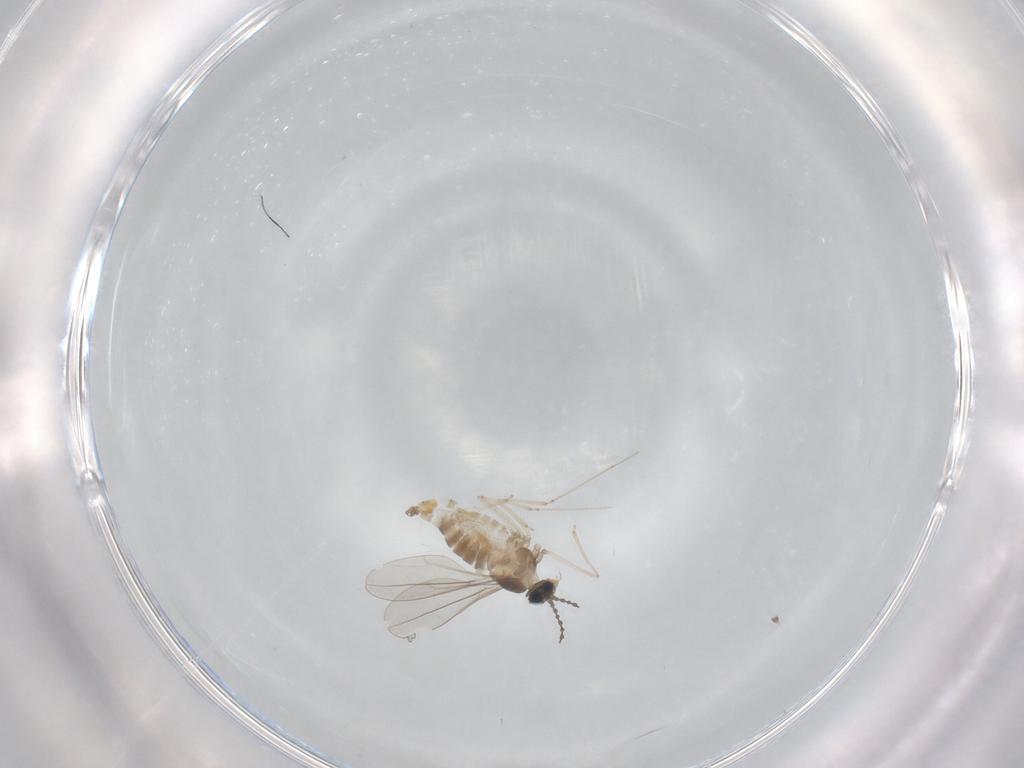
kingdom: Animalia
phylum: Arthropoda
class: Insecta
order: Diptera
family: Cecidomyiidae
